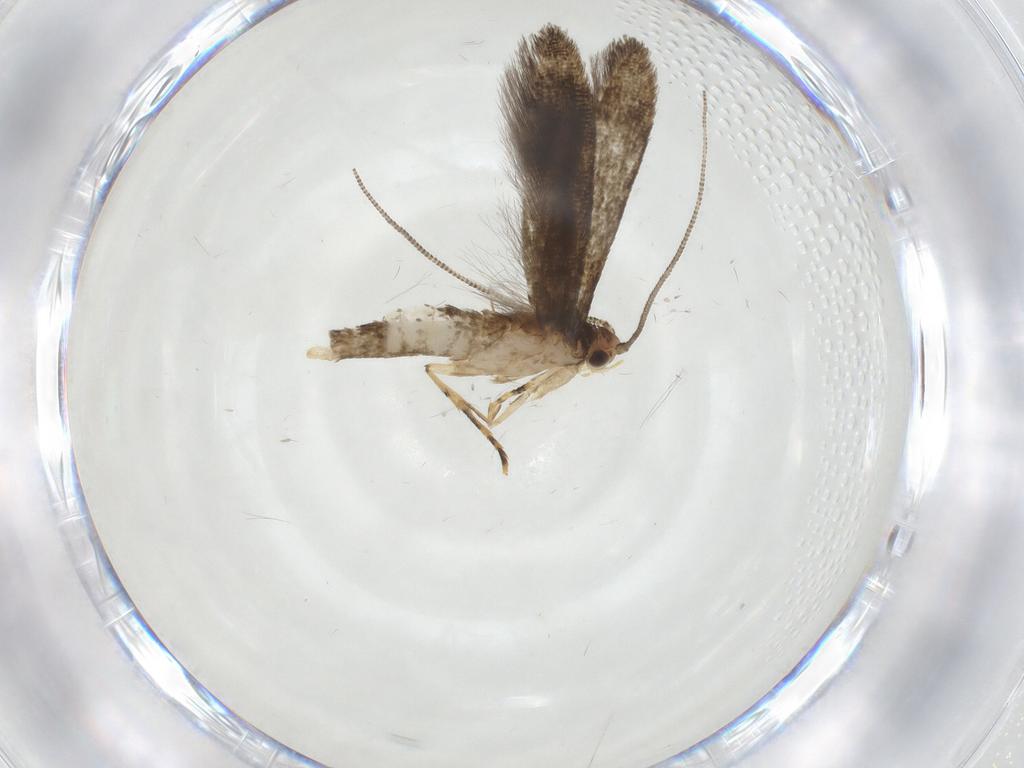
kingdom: Animalia
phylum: Arthropoda
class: Insecta
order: Lepidoptera
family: Tineidae
